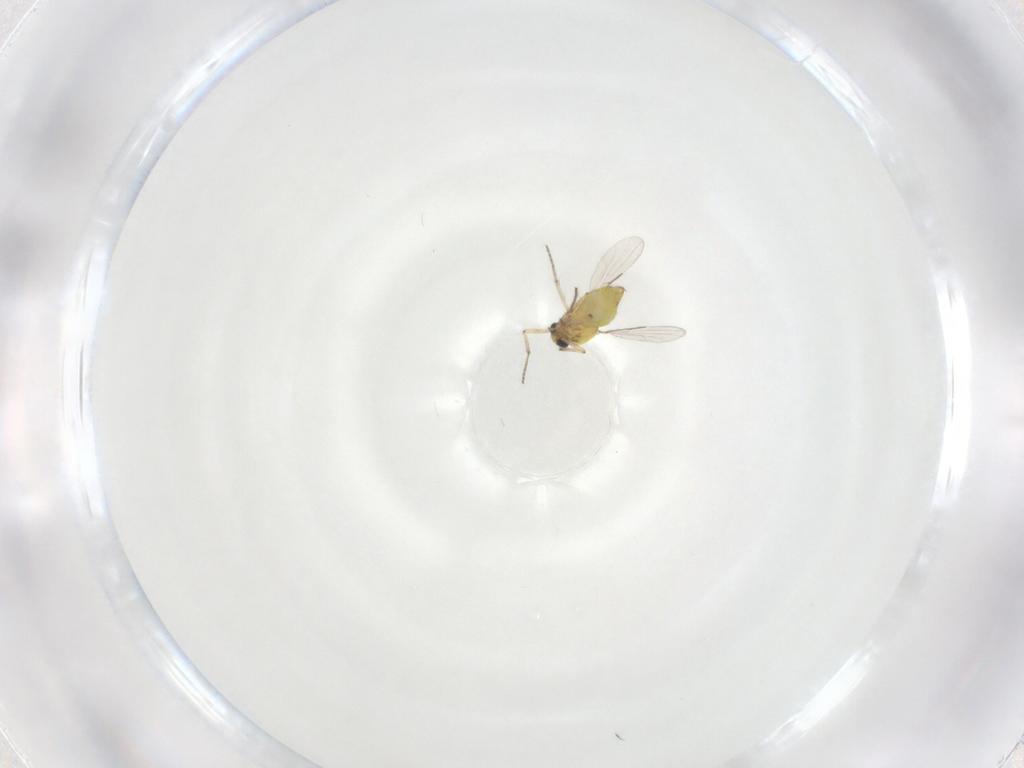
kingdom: Animalia
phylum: Arthropoda
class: Insecta
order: Diptera
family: Ceratopogonidae
